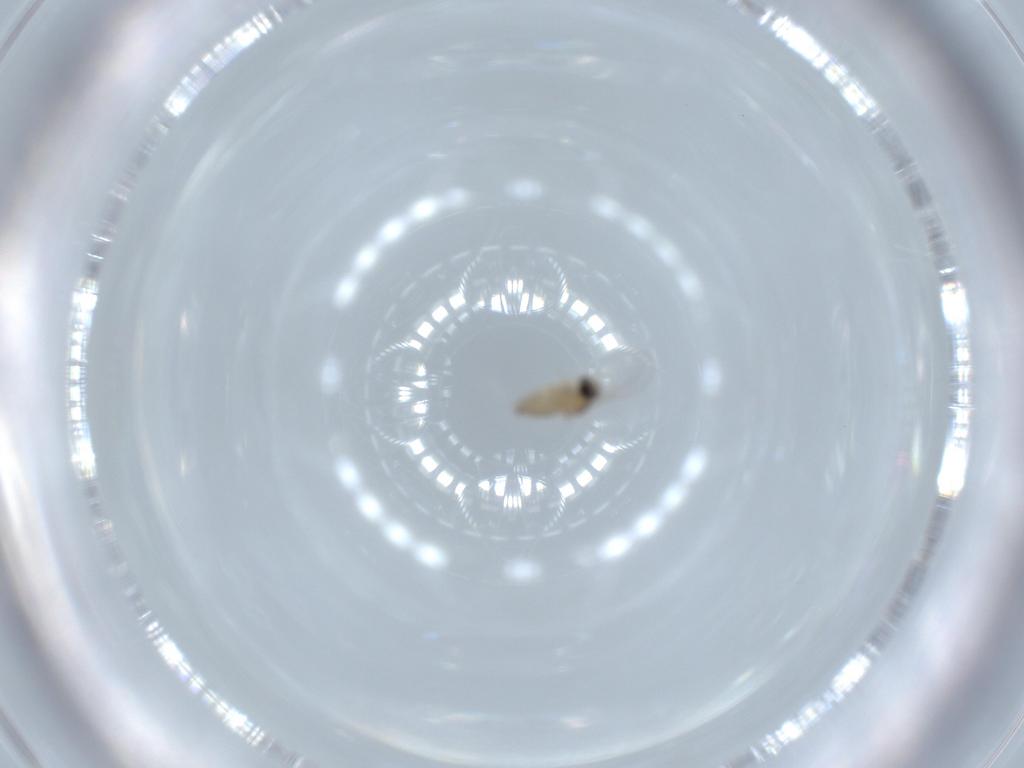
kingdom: Animalia
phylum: Arthropoda
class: Insecta
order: Diptera
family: Cecidomyiidae
